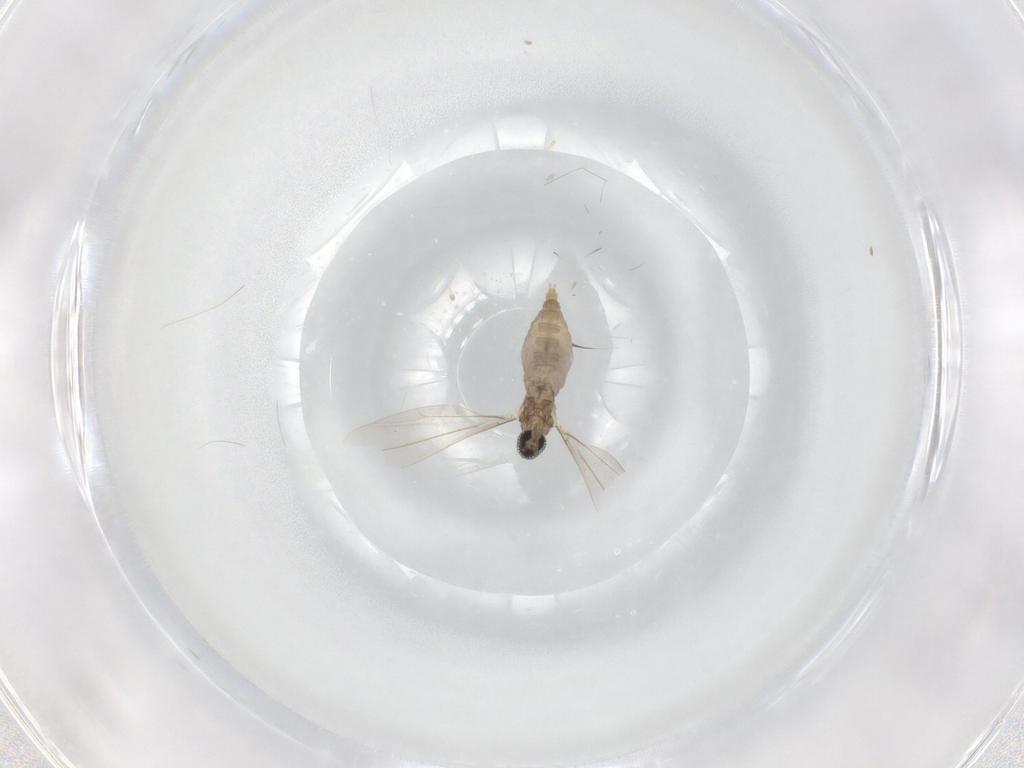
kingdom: Animalia
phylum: Arthropoda
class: Insecta
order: Diptera
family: Cecidomyiidae
